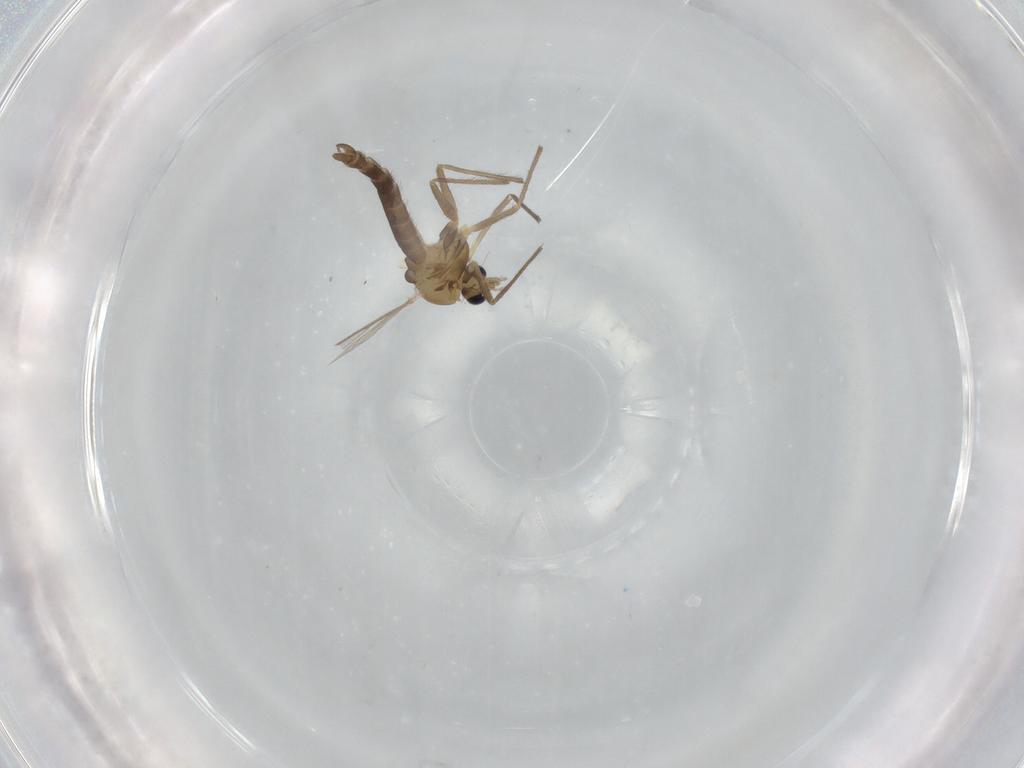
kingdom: Animalia
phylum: Arthropoda
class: Insecta
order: Diptera
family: Chironomidae
